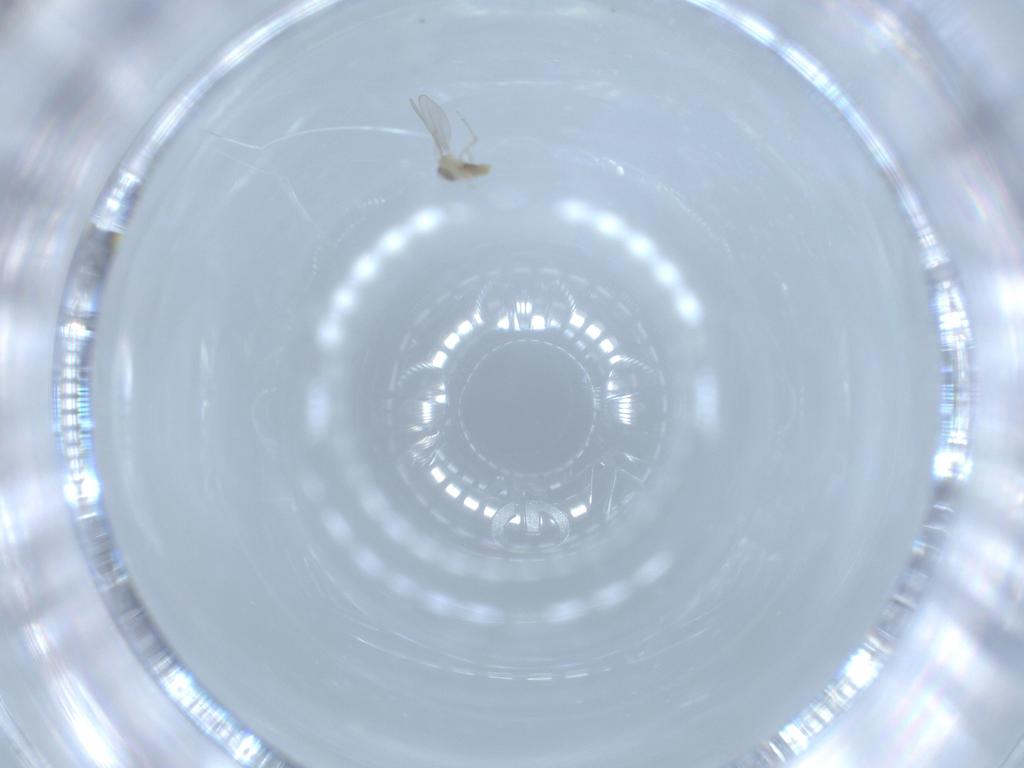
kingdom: Animalia
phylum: Arthropoda
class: Insecta
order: Diptera
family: Cecidomyiidae
